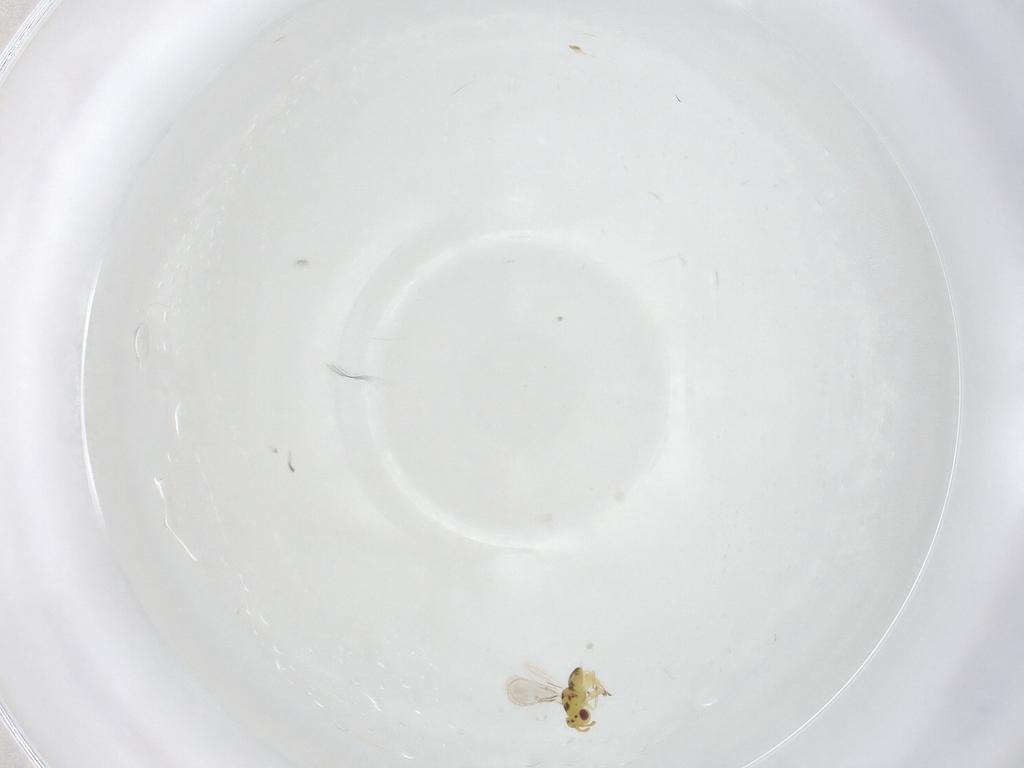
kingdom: Animalia
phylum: Arthropoda
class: Insecta
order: Hymenoptera
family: Eulophidae
